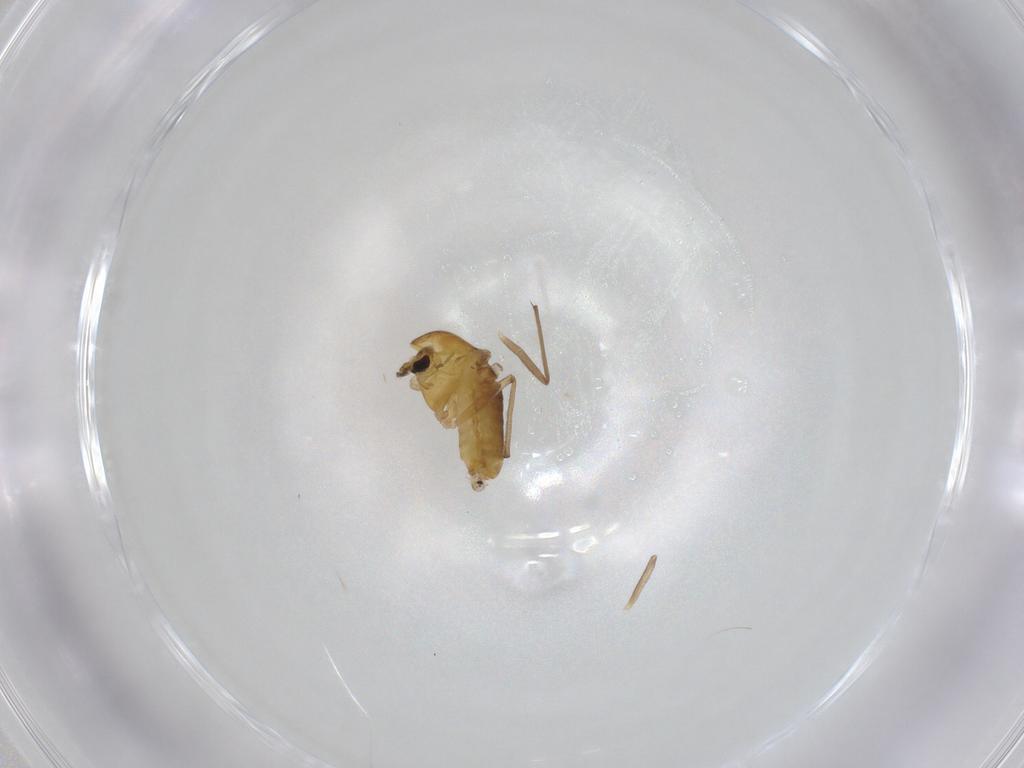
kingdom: Animalia
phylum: Arthropoda
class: Insecta
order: Diptera
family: Chironomidae
